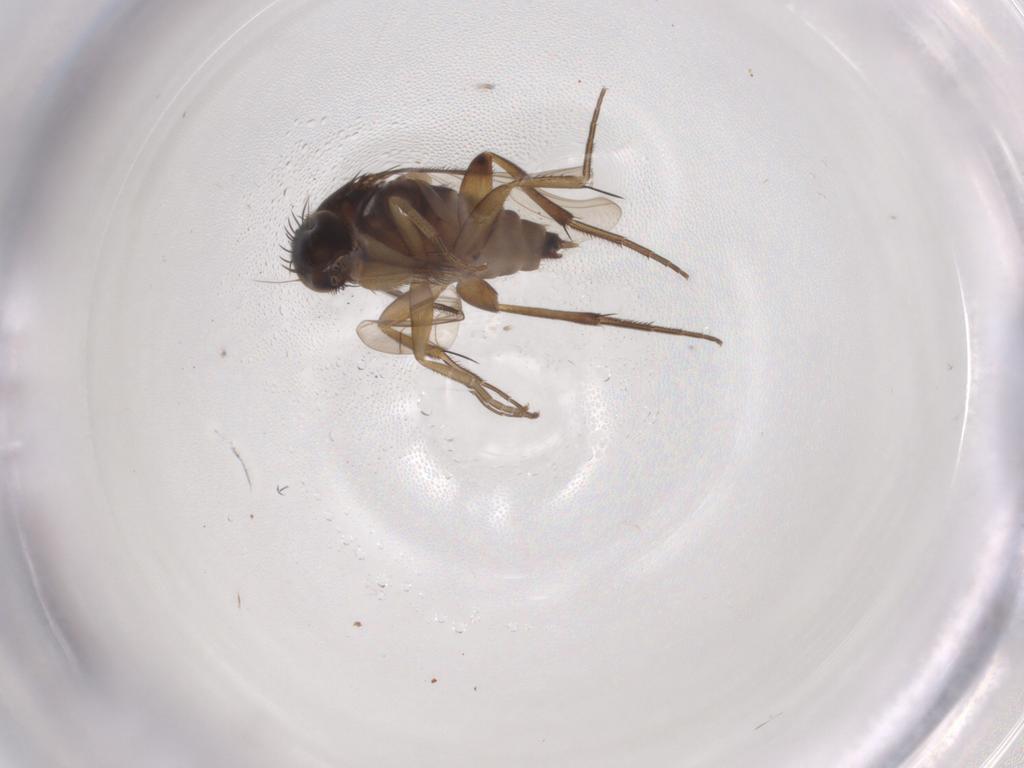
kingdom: Animalia
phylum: Arthropoda
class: Insecta
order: Diptera
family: Phoridae
